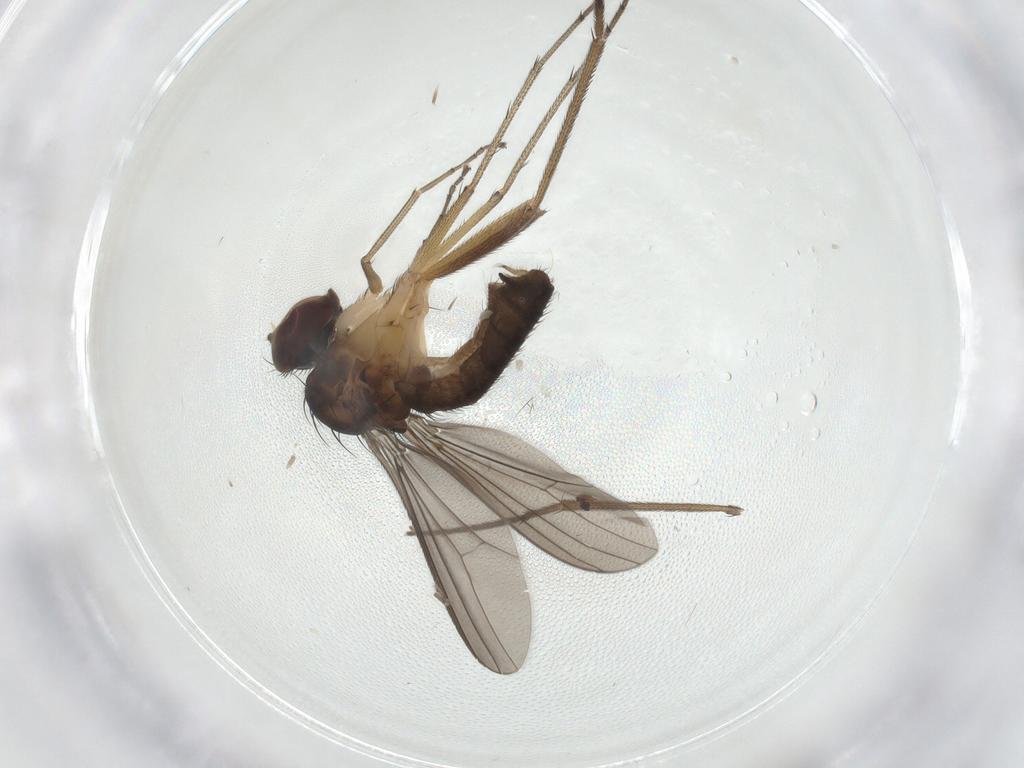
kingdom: Animalia
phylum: Arthropoda
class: Insecta
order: Diptera
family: Dolichopodidae
